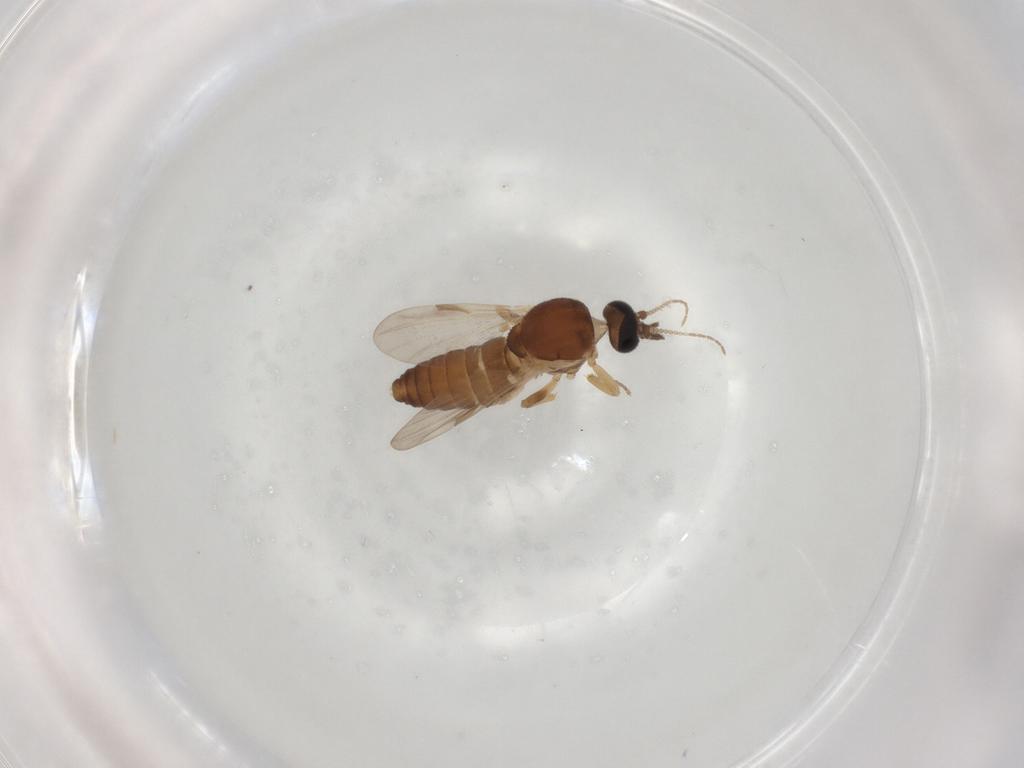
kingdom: Animalia
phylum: Arthropoda
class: Insecta
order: Diptera
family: Ceratopogonidae
